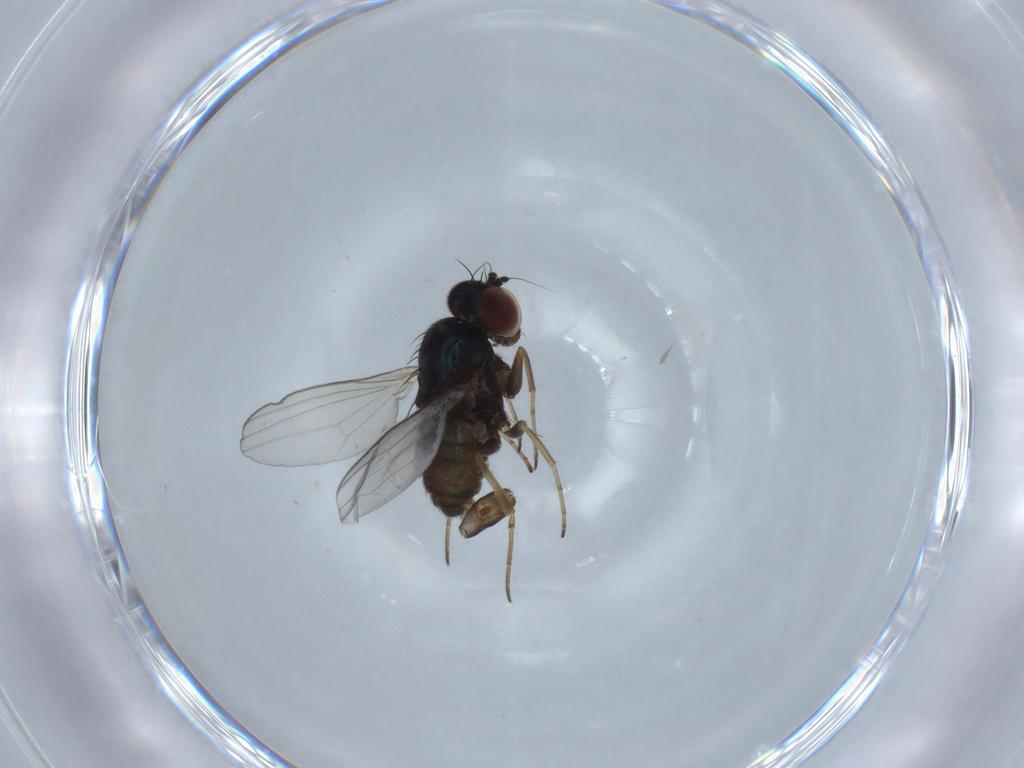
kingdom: Animalia
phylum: Arthropoda
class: Insecta
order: Diptera
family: Dolichopodidae
